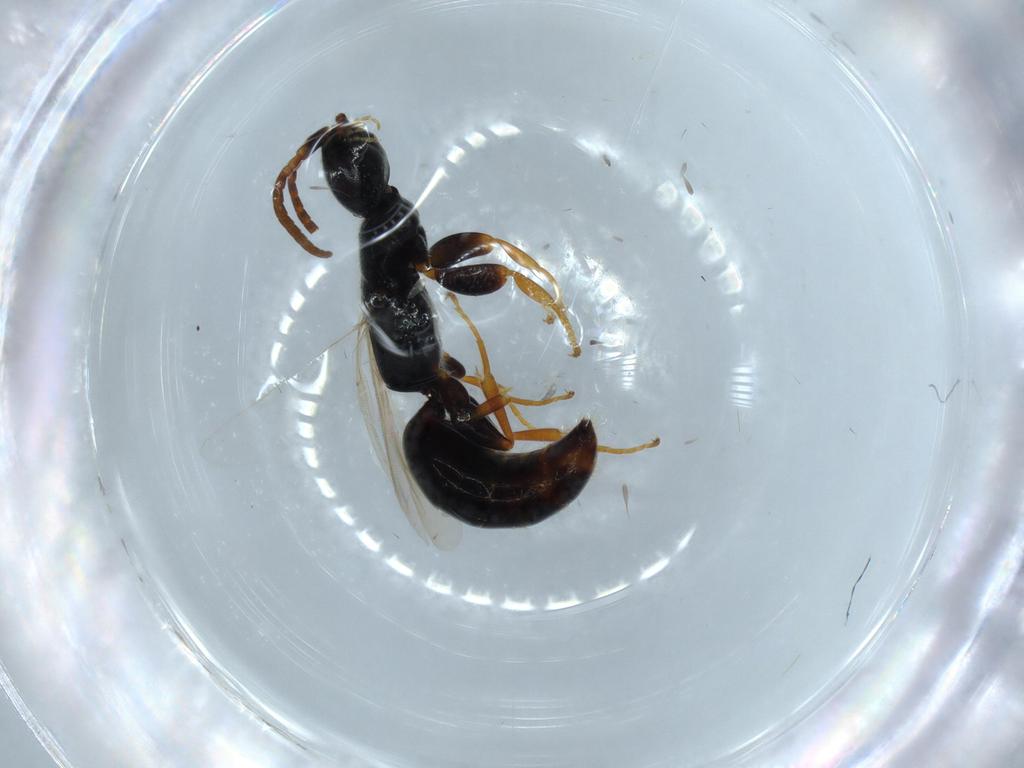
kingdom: Animalia
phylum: Arthropoda
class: Insecta
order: Hymenoptera
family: Bethylidae
